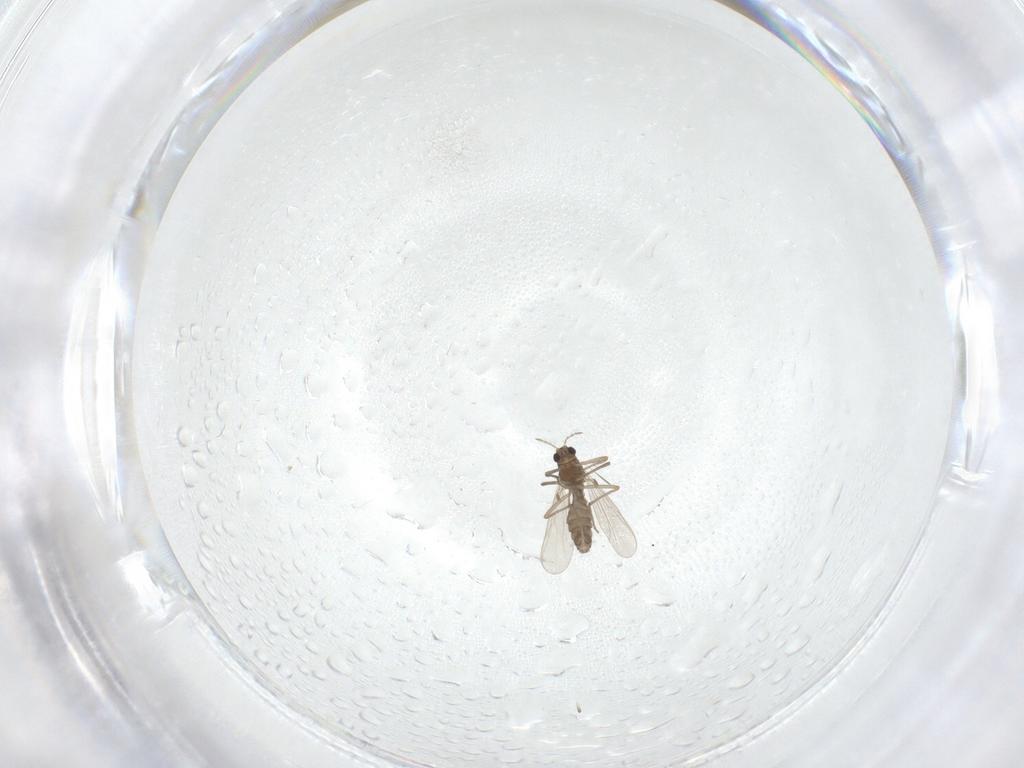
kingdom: Animalia
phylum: Arthropoda
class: Insecta
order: Diptera
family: Chironomidae
